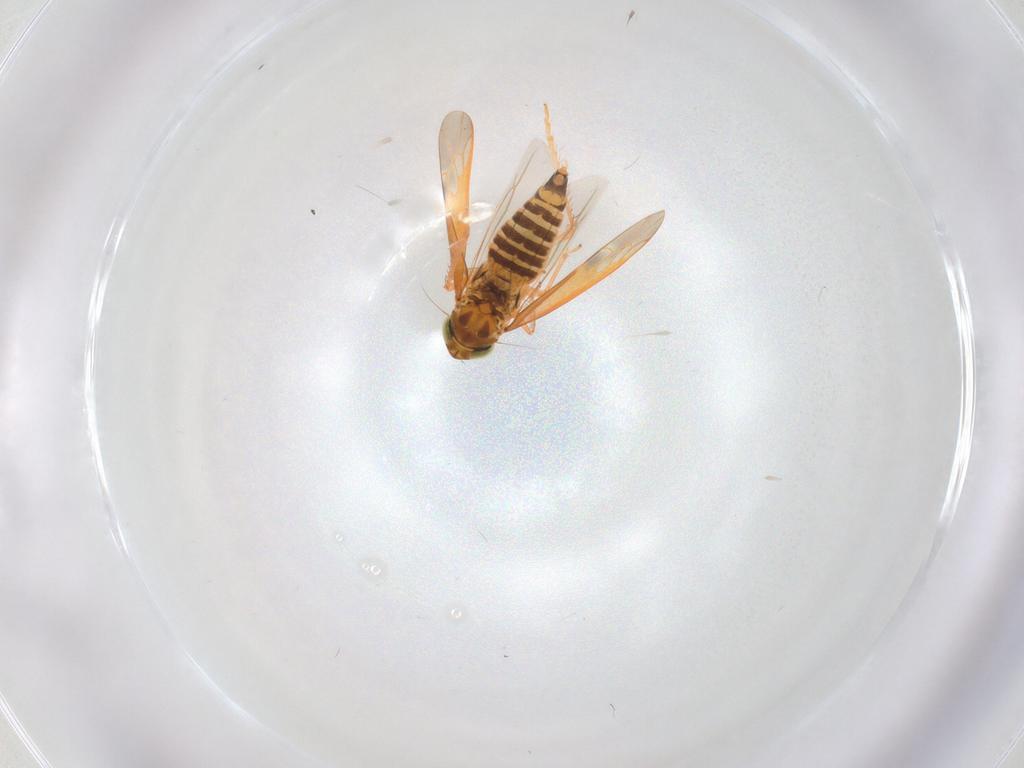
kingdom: Animalia
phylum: Arthropoda
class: Insecta
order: Hemiptera
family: Cicadellidae
